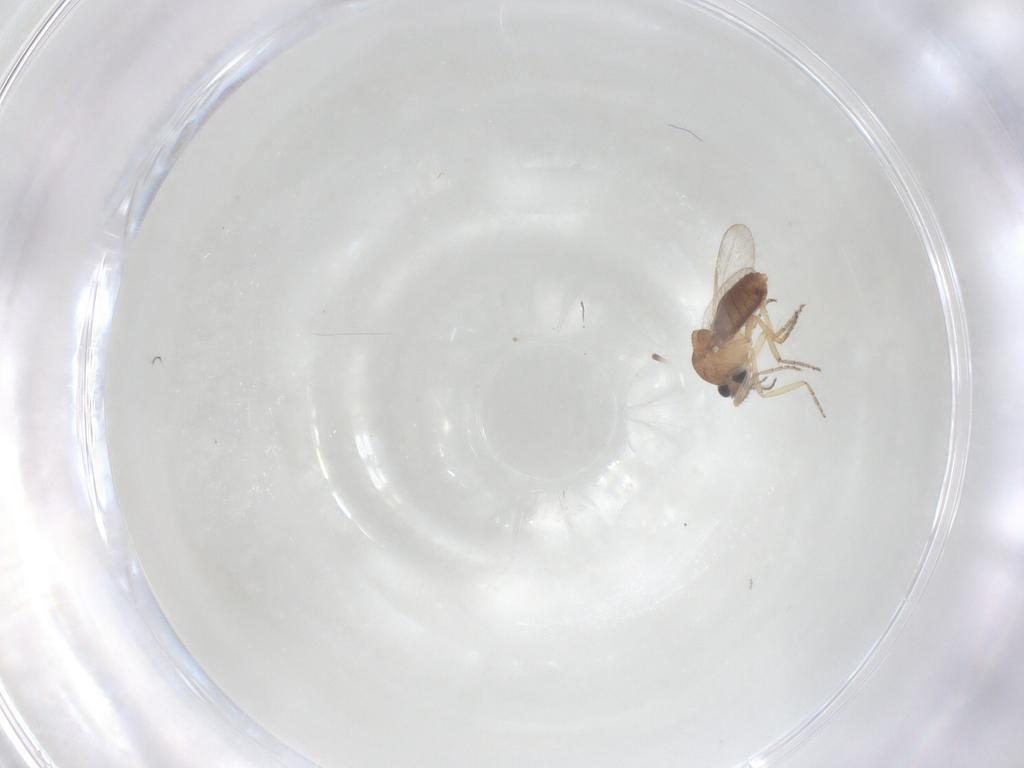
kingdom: Animalia
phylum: Arthropoda
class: Insecta
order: Diptera
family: Ceratopogonidae
